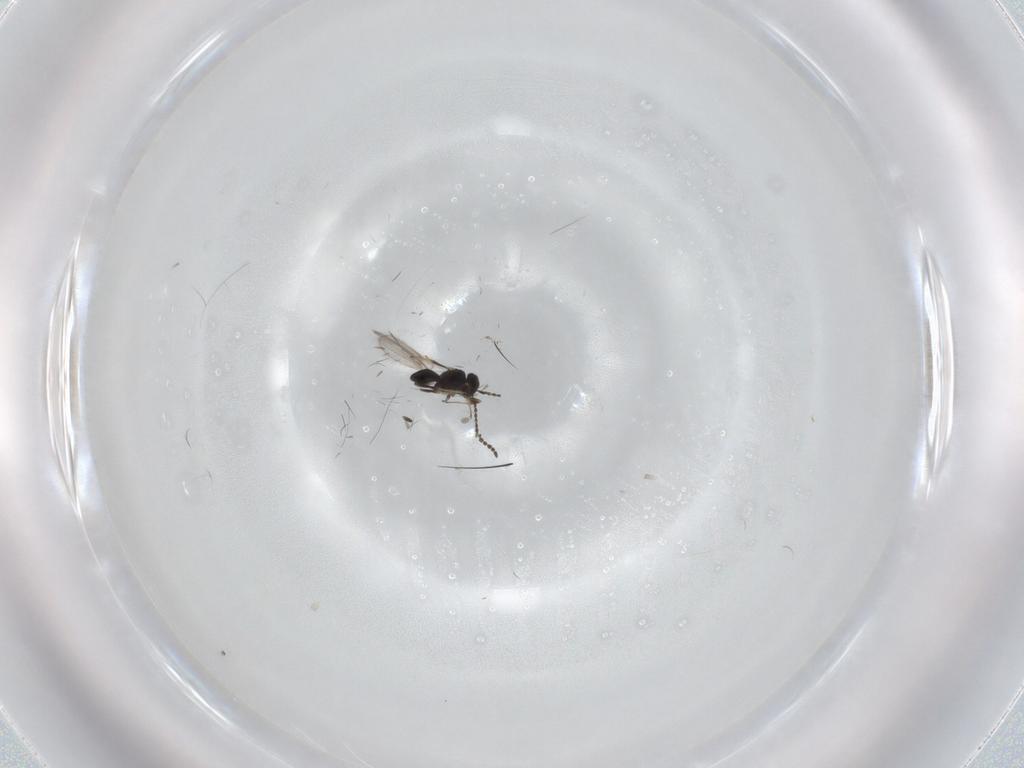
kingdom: Animalia
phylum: Arthropoda
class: Insecta
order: Hymenoptera
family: Scelionidae
